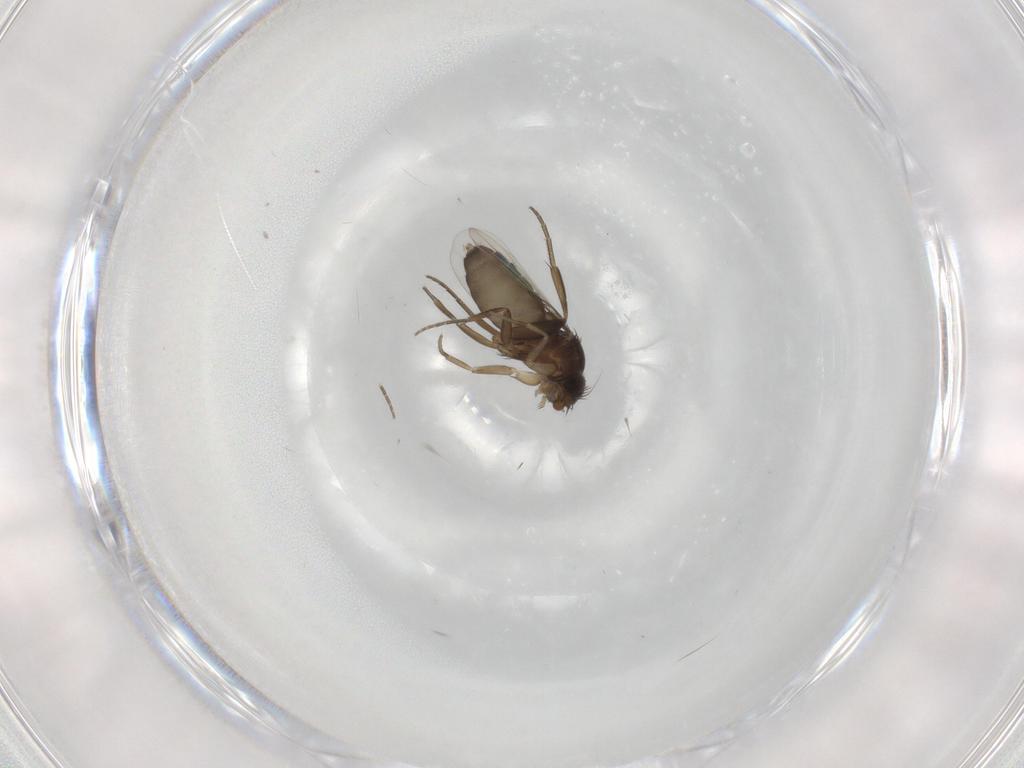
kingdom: Animalia
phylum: Arthropoda
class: Insecta
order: Diptera
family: Phoridae
